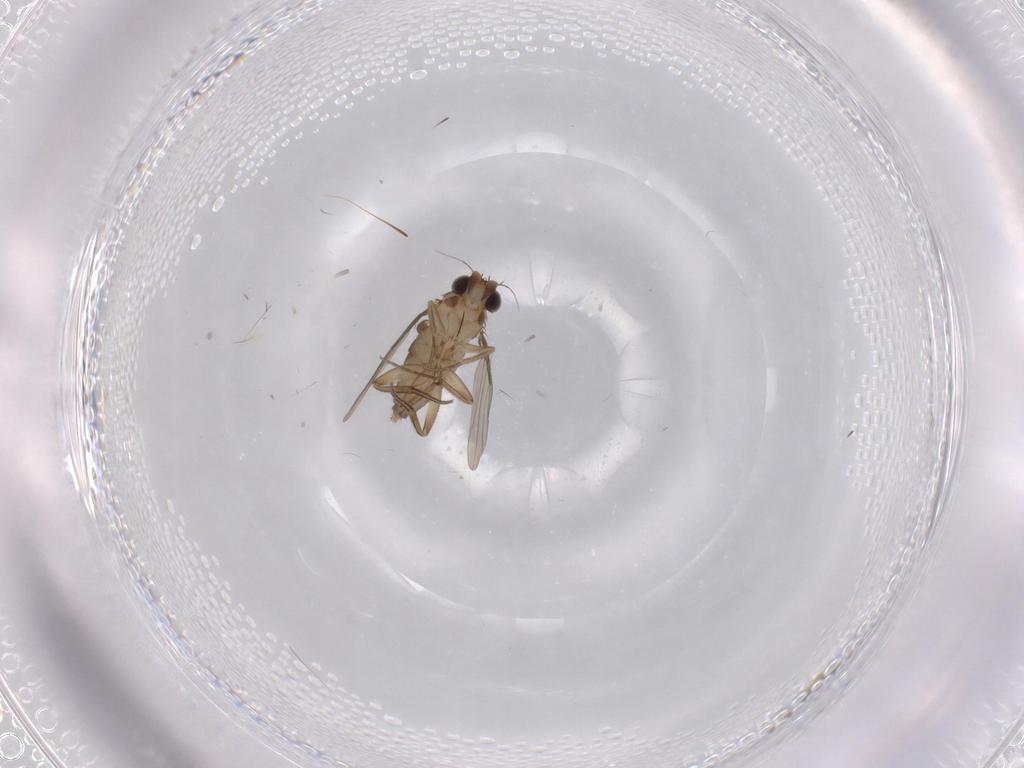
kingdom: Animalia
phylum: Arthropoda
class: Insecta
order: Diptera
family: Phoridae
